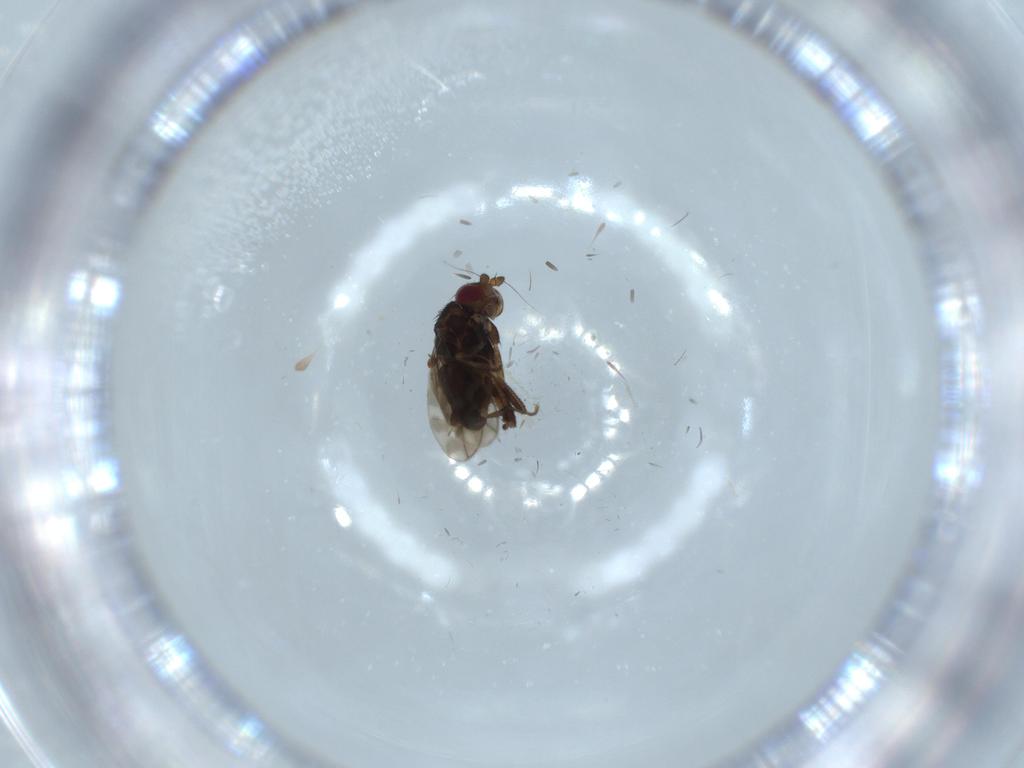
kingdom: Animalia
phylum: Arthropoda
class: Insecta
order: Diptera
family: Sphaeroceridae
